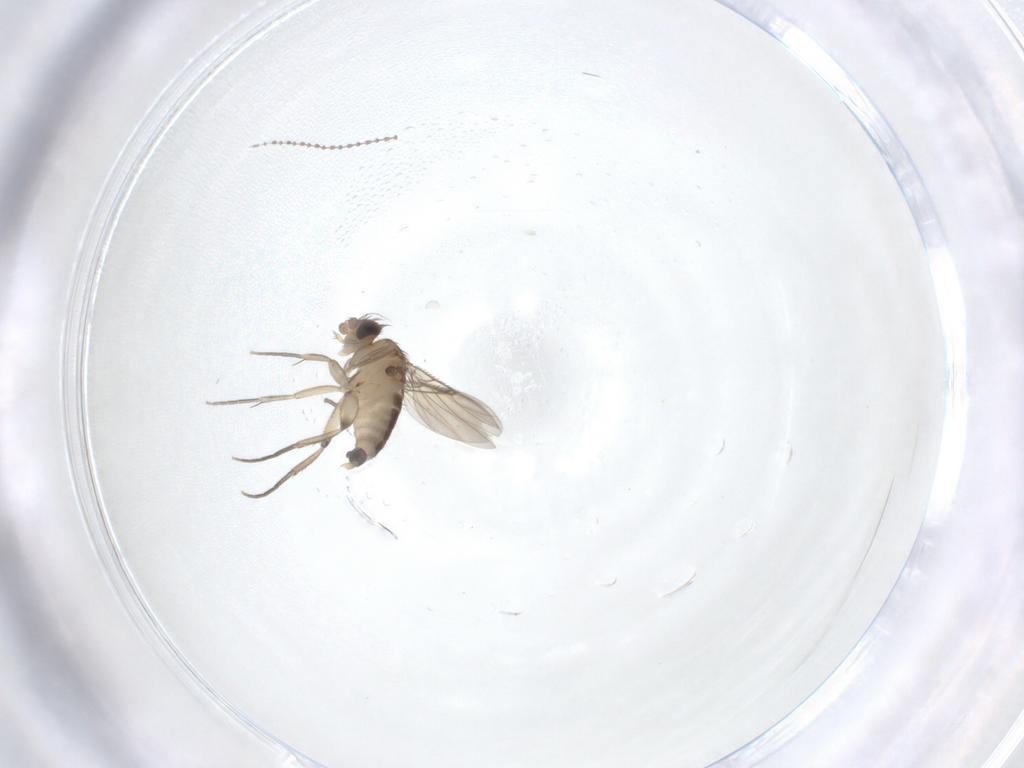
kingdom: Animalia
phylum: Arthropoda
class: Insecta
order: Diptera
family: Cecidomyiidae
